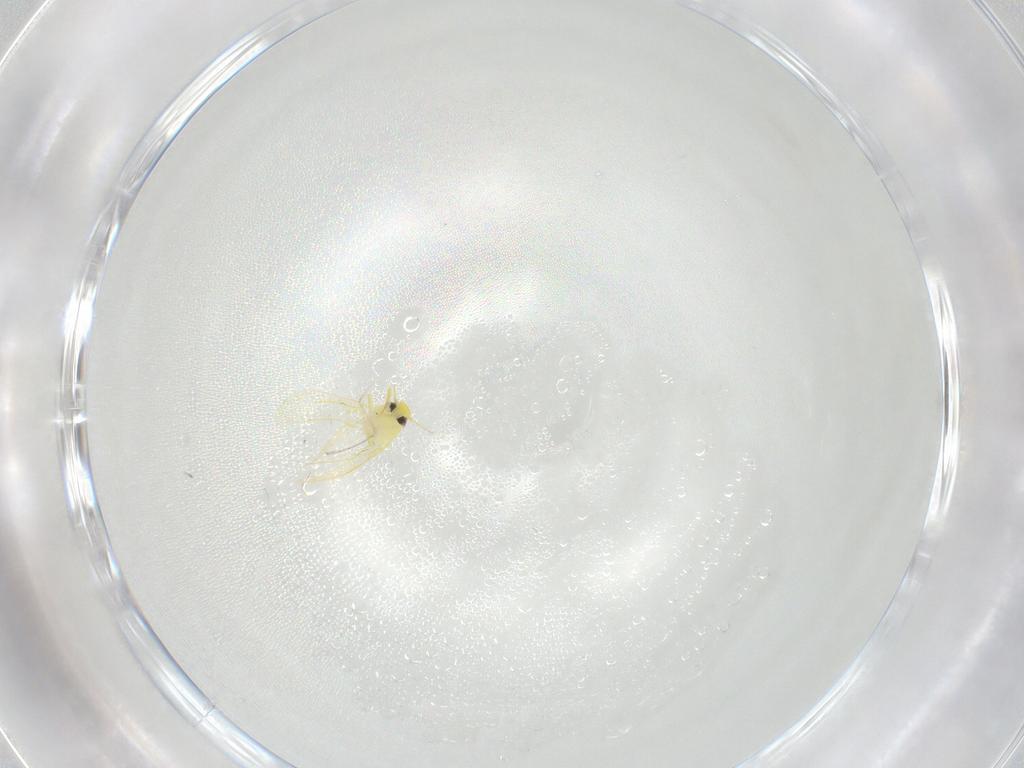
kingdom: Animalia
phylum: Arthropoda
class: Insecta
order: Hemiptera
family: Aleyrodidae
